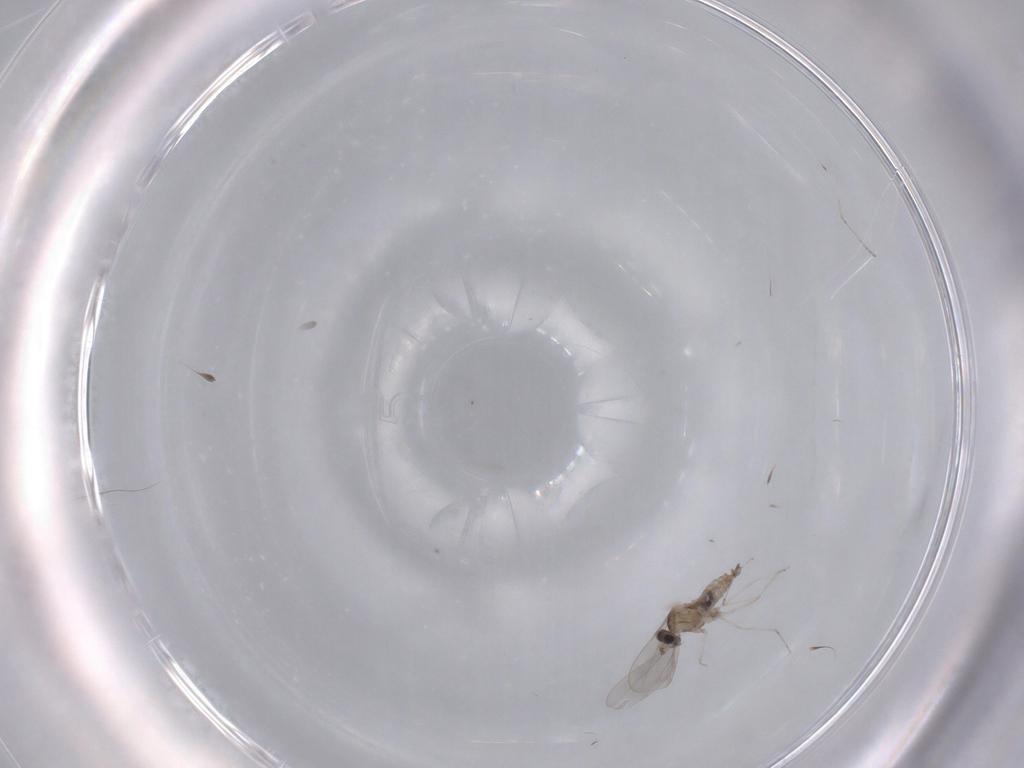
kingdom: Animalia
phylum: Arthropoda
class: Insecta
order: Diptera
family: Cecidomyiidae
